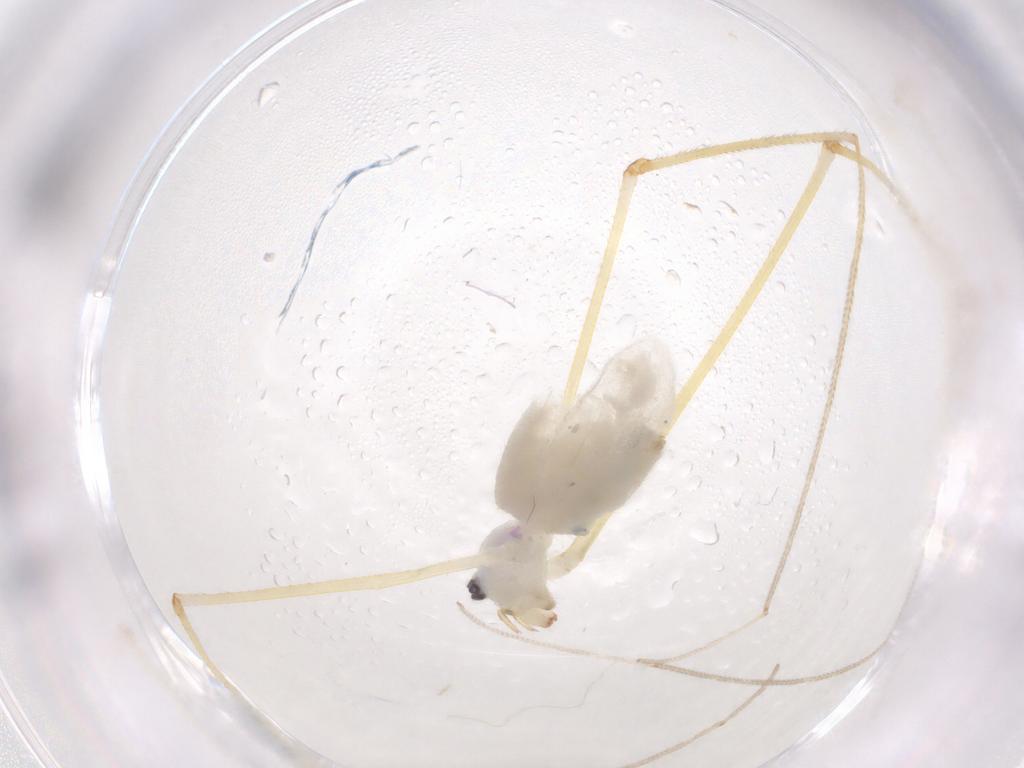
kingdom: Animalia
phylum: Arthropoda
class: Arachnida
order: Araneae
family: Pholcidae
